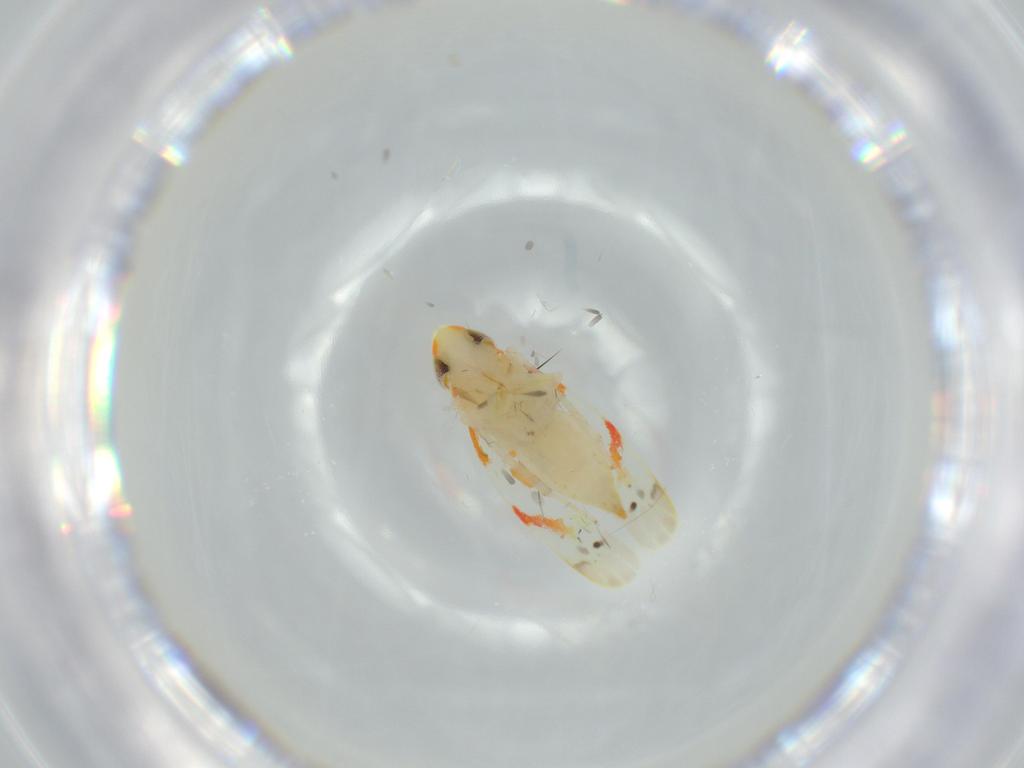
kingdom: Animalia
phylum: Arthropoda
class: Insecta
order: Hemiptera
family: Cicadellidae
